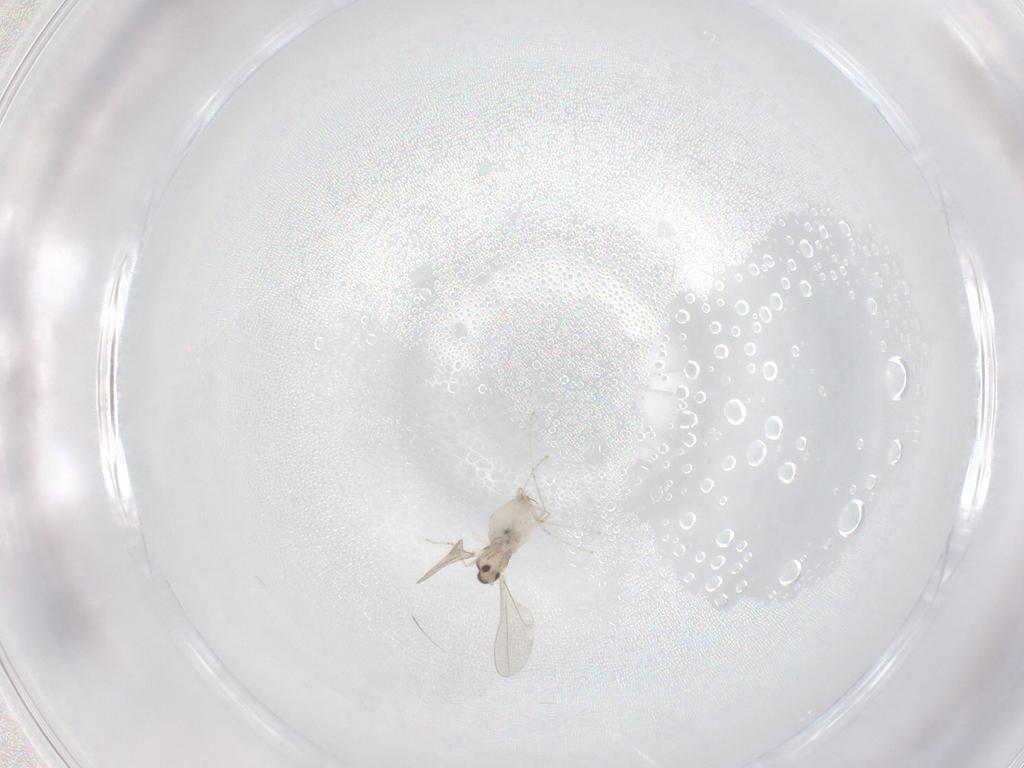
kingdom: Animalia
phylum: Arthropoda
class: Insecta
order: Diptera
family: Cecidomyiidae
